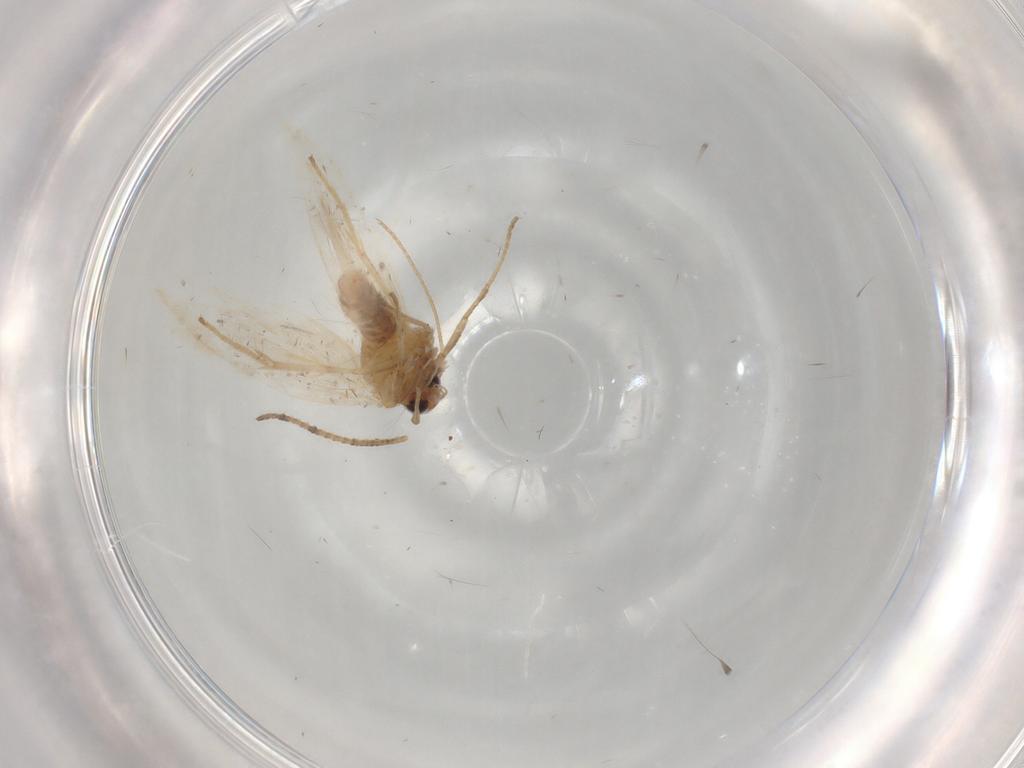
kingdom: Animalia
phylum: Arthropoda
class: Insecta
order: Lepidoptera
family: Gelechiidae
